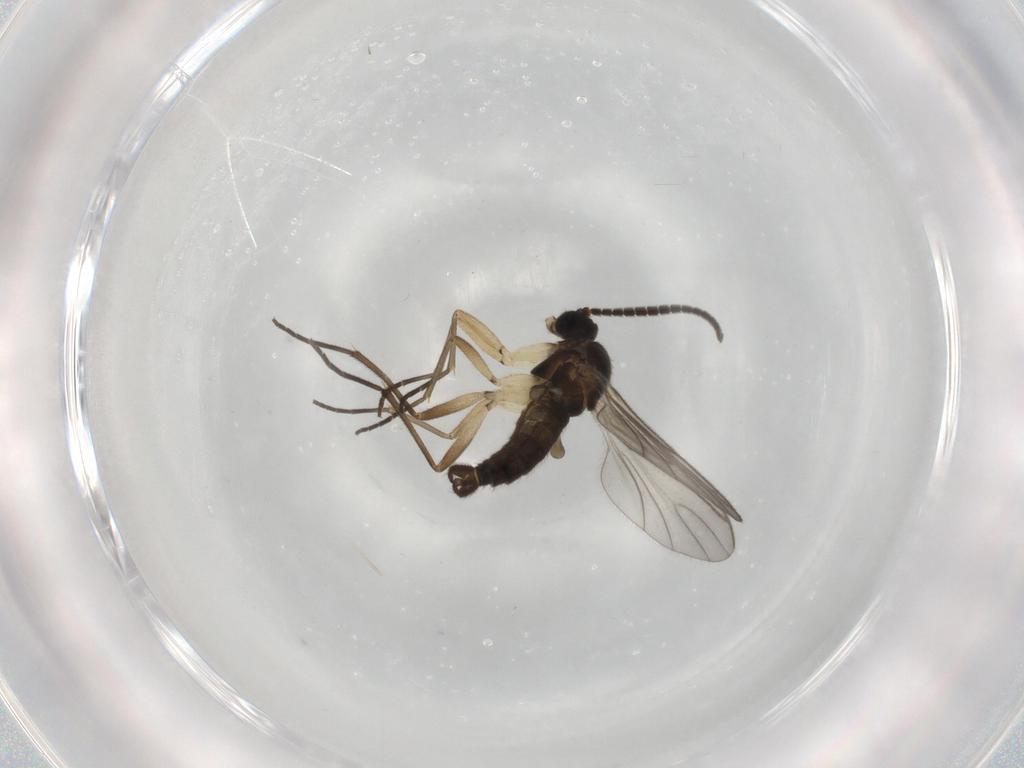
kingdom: Animalia
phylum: Arthropoda
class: Insecta
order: Diptera
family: Sciaridae
